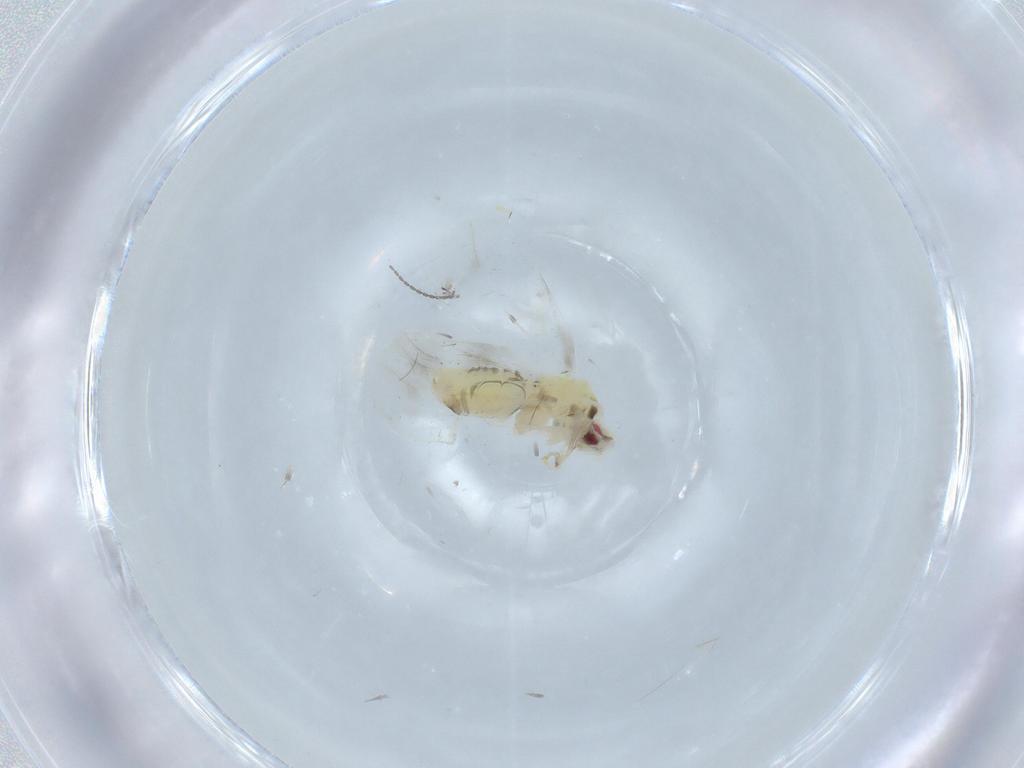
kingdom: Animalia
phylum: Arthropoda
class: Insecta
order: Hemiptera
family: Aleyrodidae
